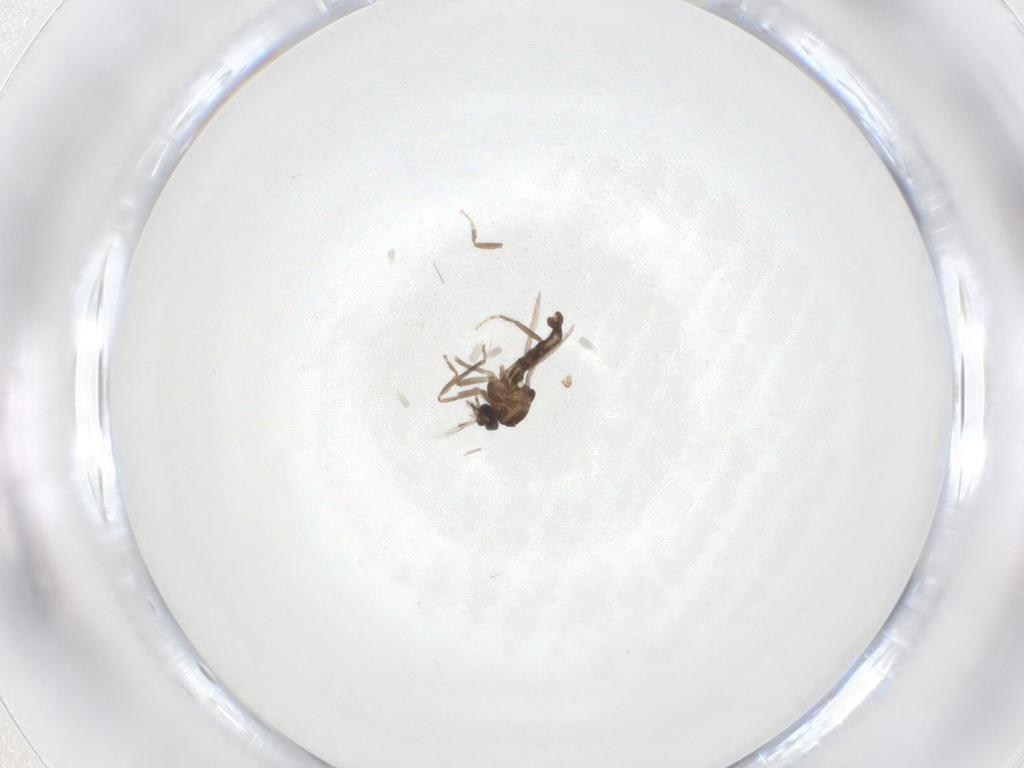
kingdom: Animalia
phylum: Arthropoda
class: Insecta
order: Diptera
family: Ceratopogonidae
